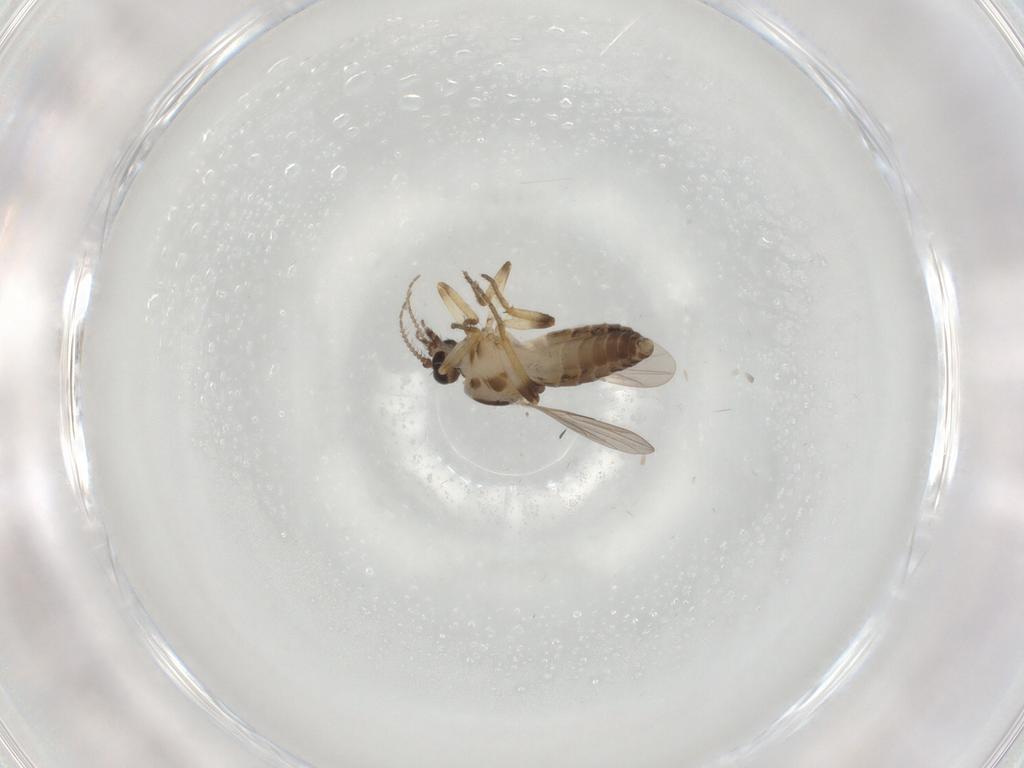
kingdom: Animalia
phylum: Arthropoda
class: Insecta
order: Diptera
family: Ceratopogonidae
